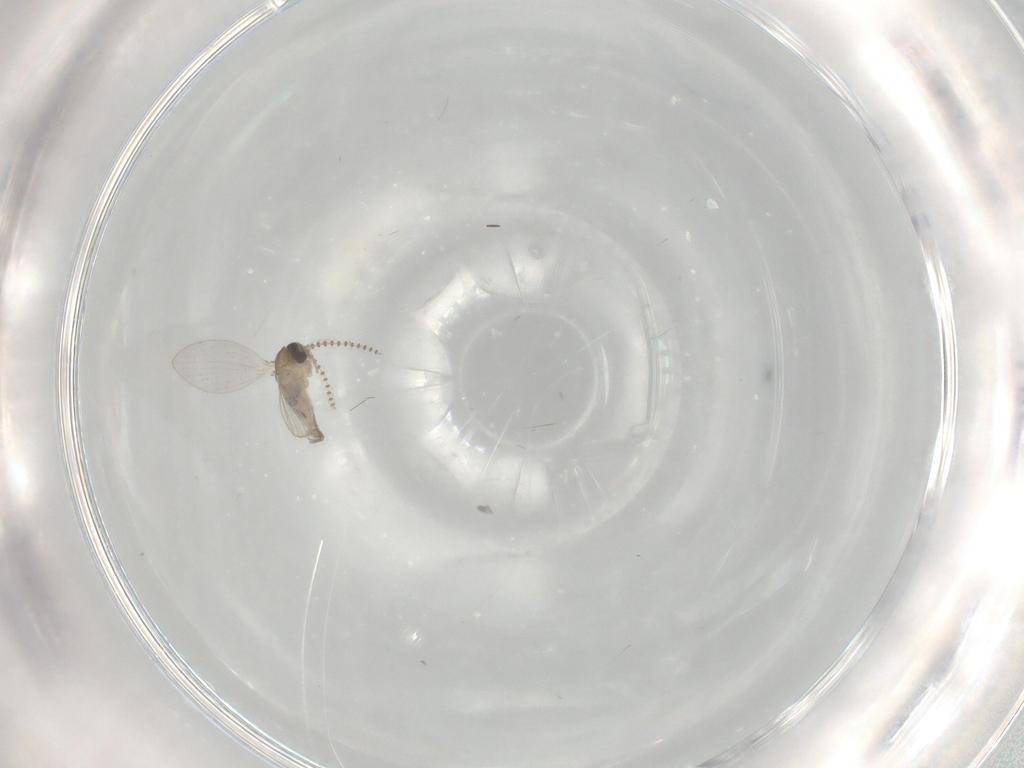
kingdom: Animalia
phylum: Arthropoda
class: Insecta
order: Diptera
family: Psychodidae
